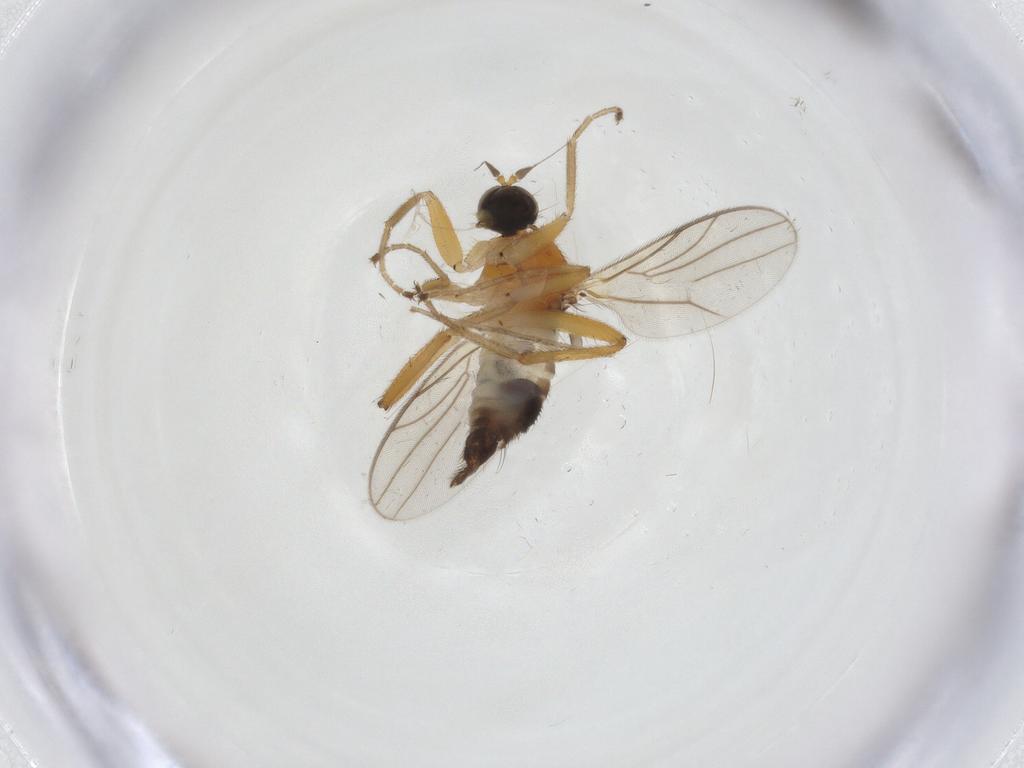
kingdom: Animalia
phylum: Arthropoda
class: Insecta
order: Diptera
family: Hybotidae
